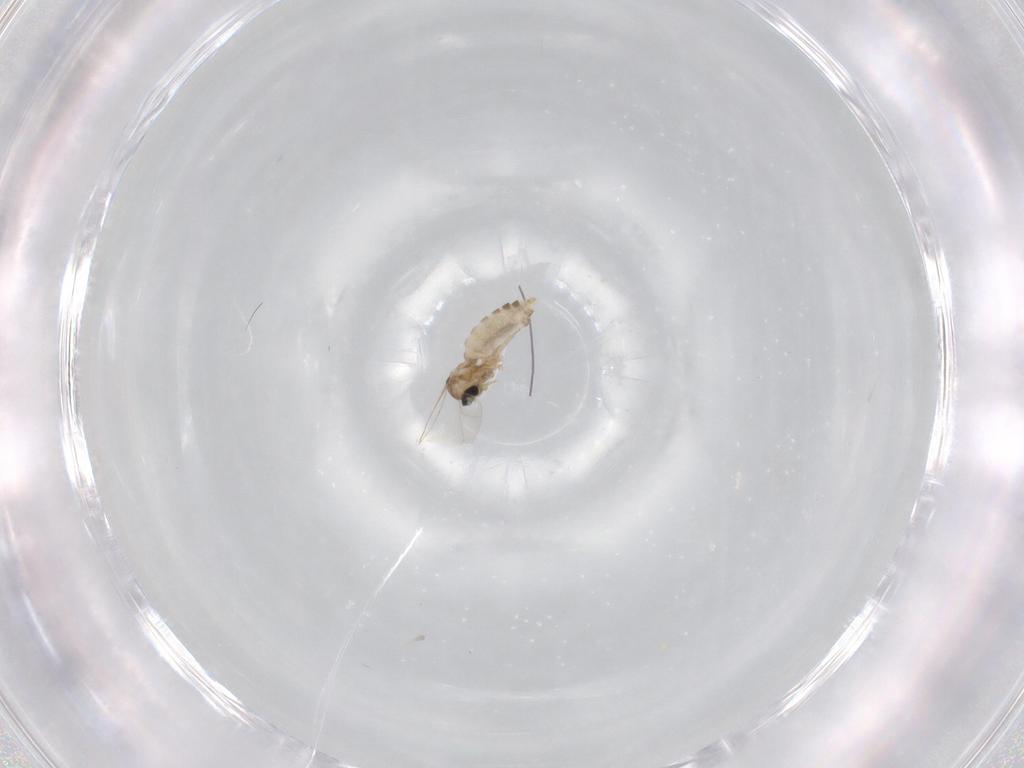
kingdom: Animalia
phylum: Arthropoda
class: Insecta
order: Diptera
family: Cecidomyiidae
